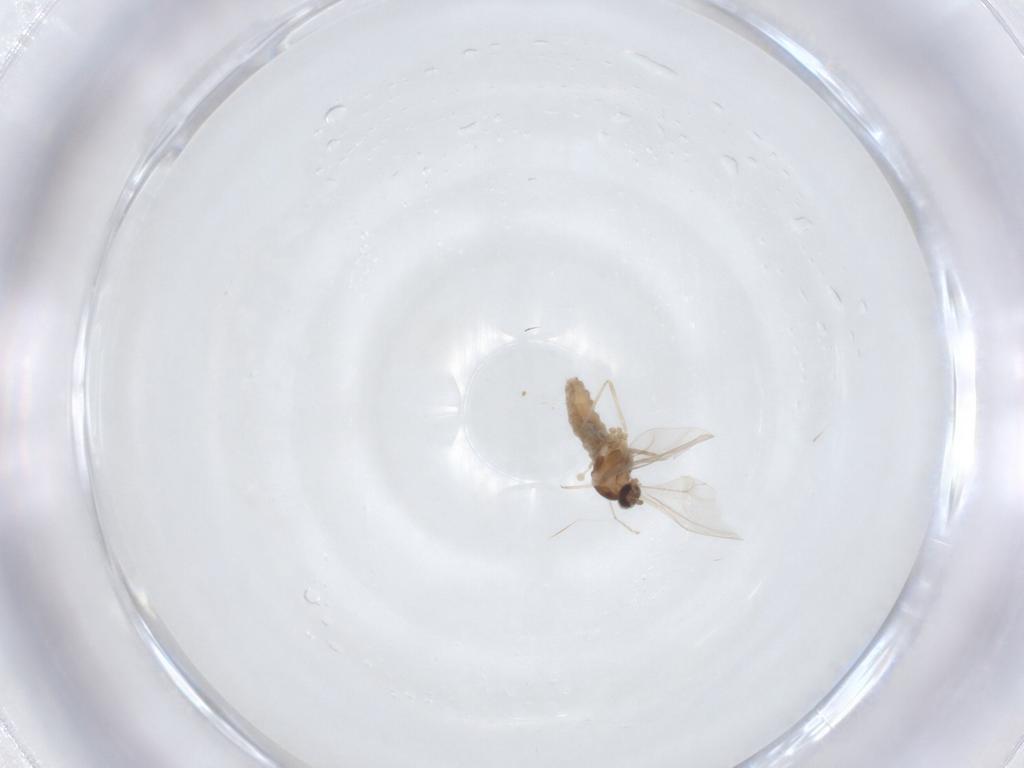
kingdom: Animalia
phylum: Arthropoda
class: Insecta
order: Diptera
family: Cecidomyiidae
